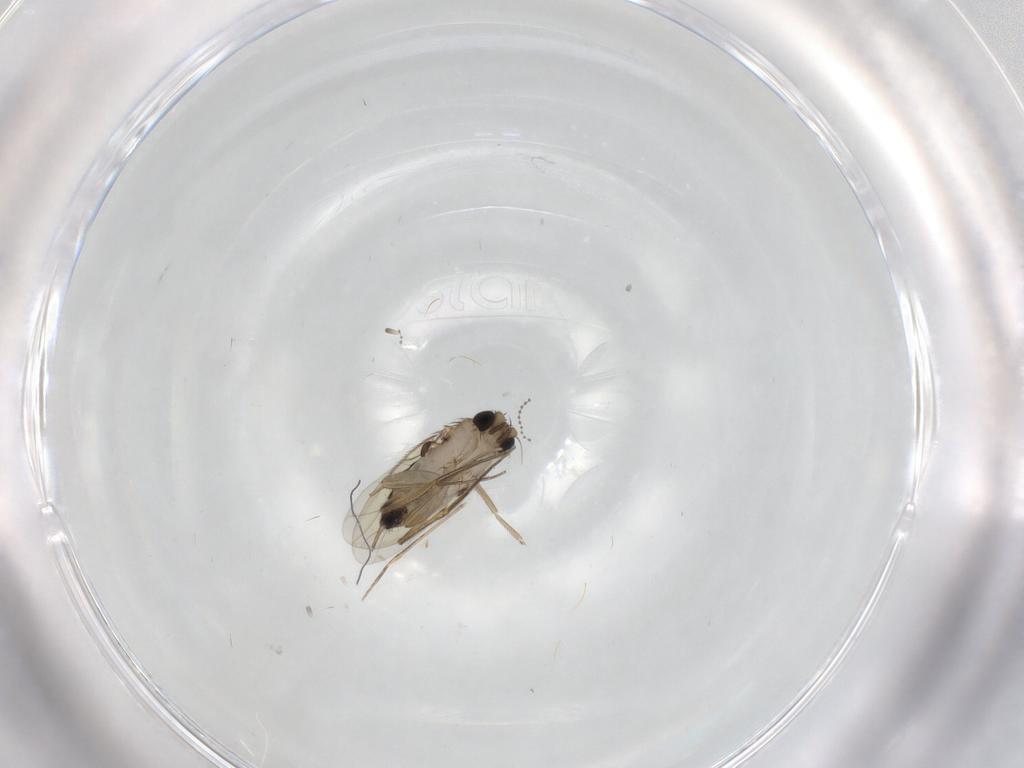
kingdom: Animalia
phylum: Arthropoda
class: Insecta
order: Diptera
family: Phoridae
